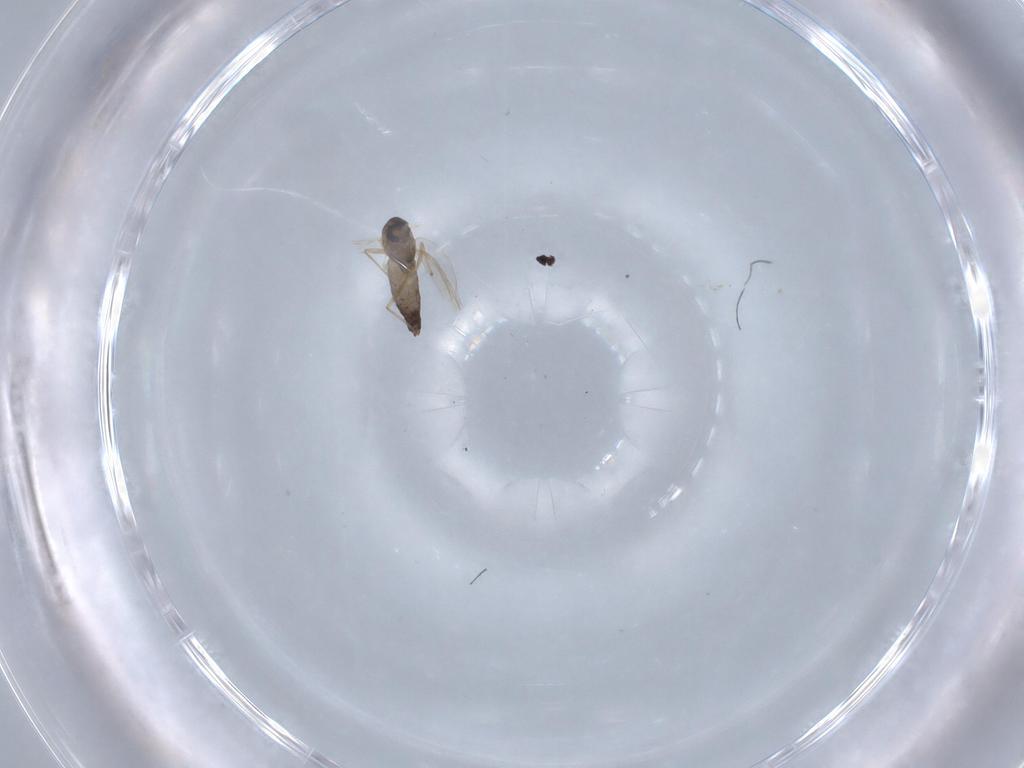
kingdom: Animalia
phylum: Arthropoda
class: Insecta
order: Diptera
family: Chironomidae
